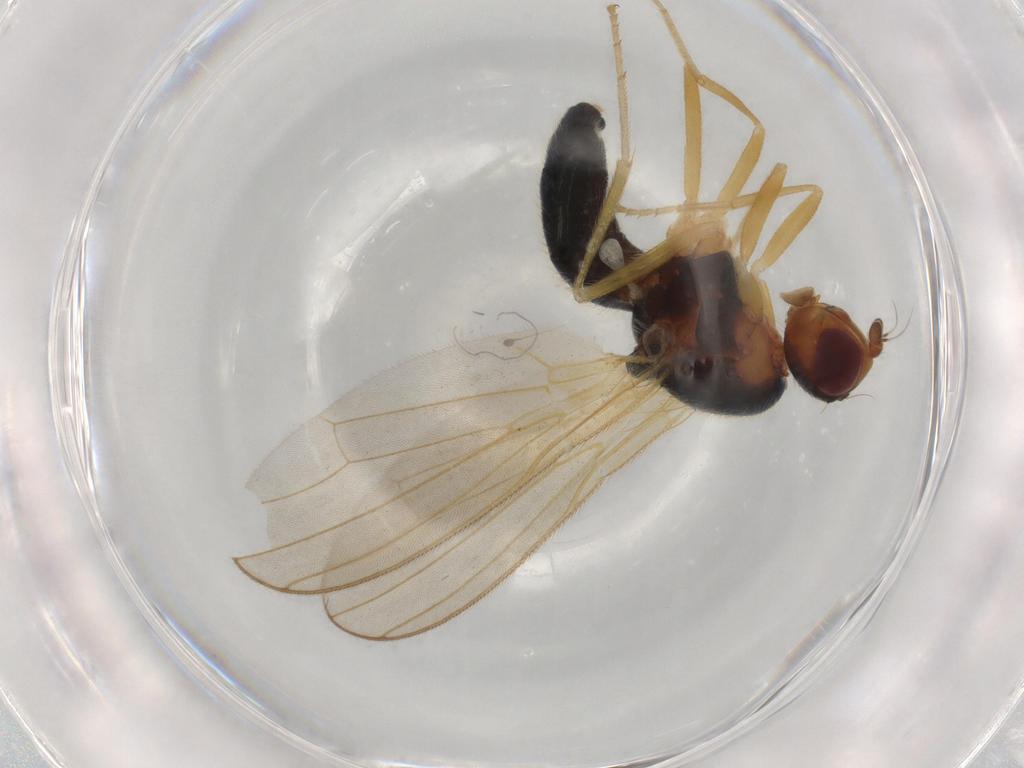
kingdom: Animalia
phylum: Arthropoda
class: Insecta
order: Diptera
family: Hybotidae
